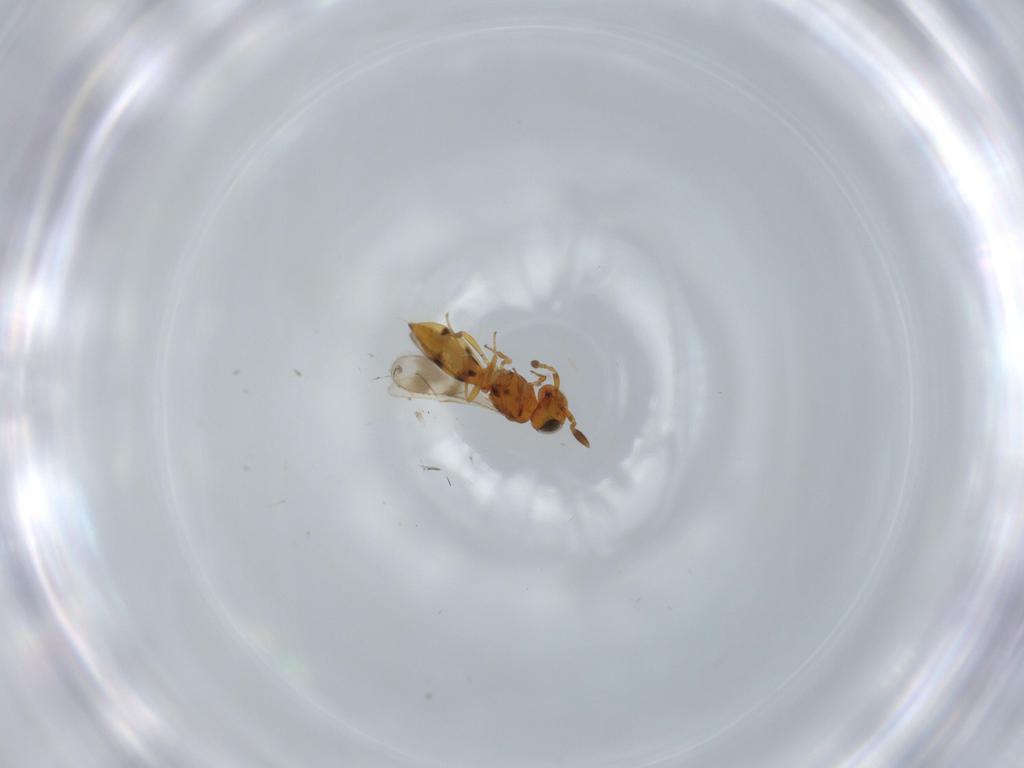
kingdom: Animalia
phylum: Arthropoda
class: Insecta
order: Hymenoptera
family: Scelionidae
